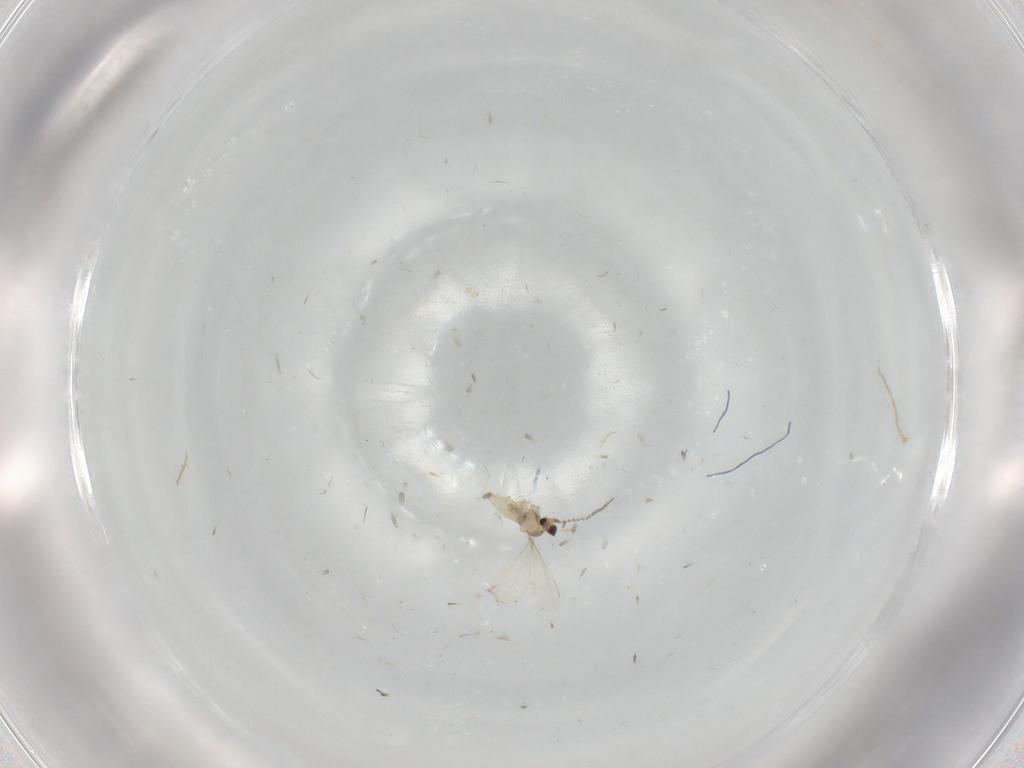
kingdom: Animalia
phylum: Arthropoda
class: Insecta
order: Diptera
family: Cecidomyiidae
